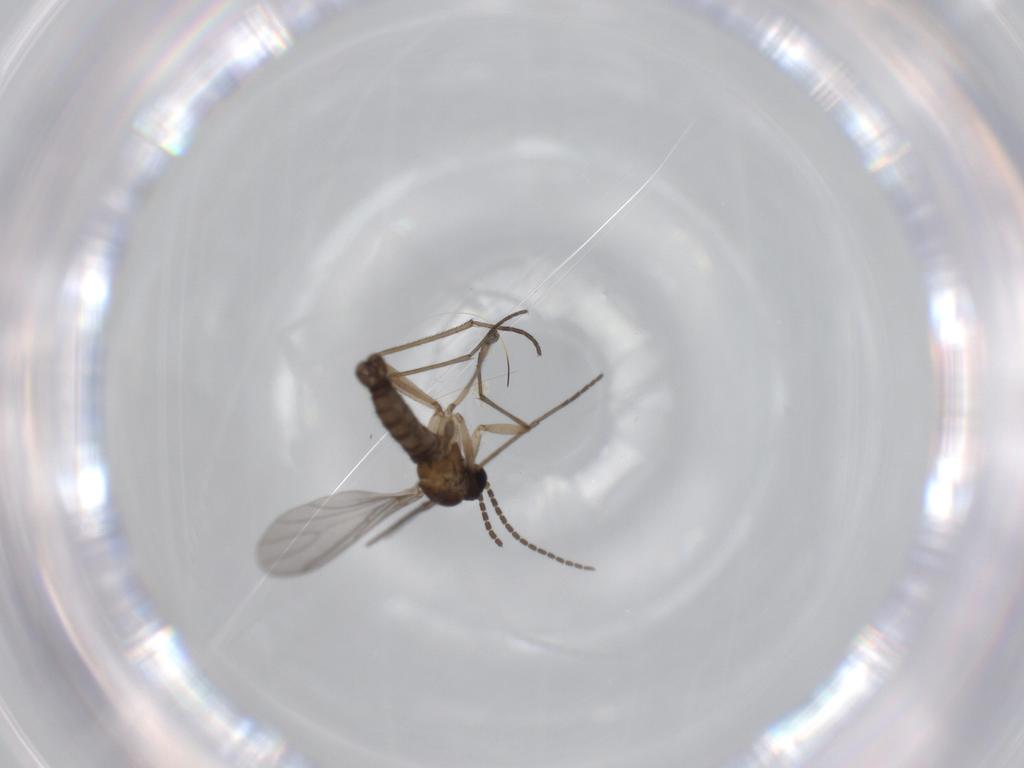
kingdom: Animalia
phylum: Arthropoda
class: Insecta
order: Diptera
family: Sciaridae
